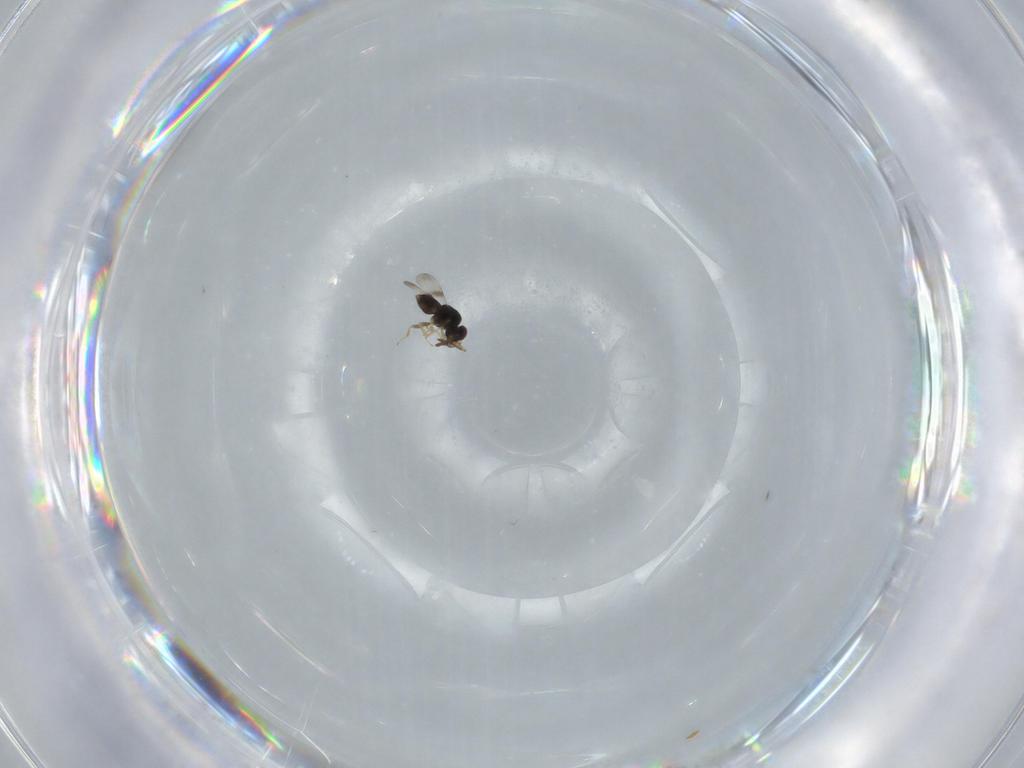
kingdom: Animalia
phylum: Arthropoda
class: Insecta
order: Hymenoptera
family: Ceraphronidae
